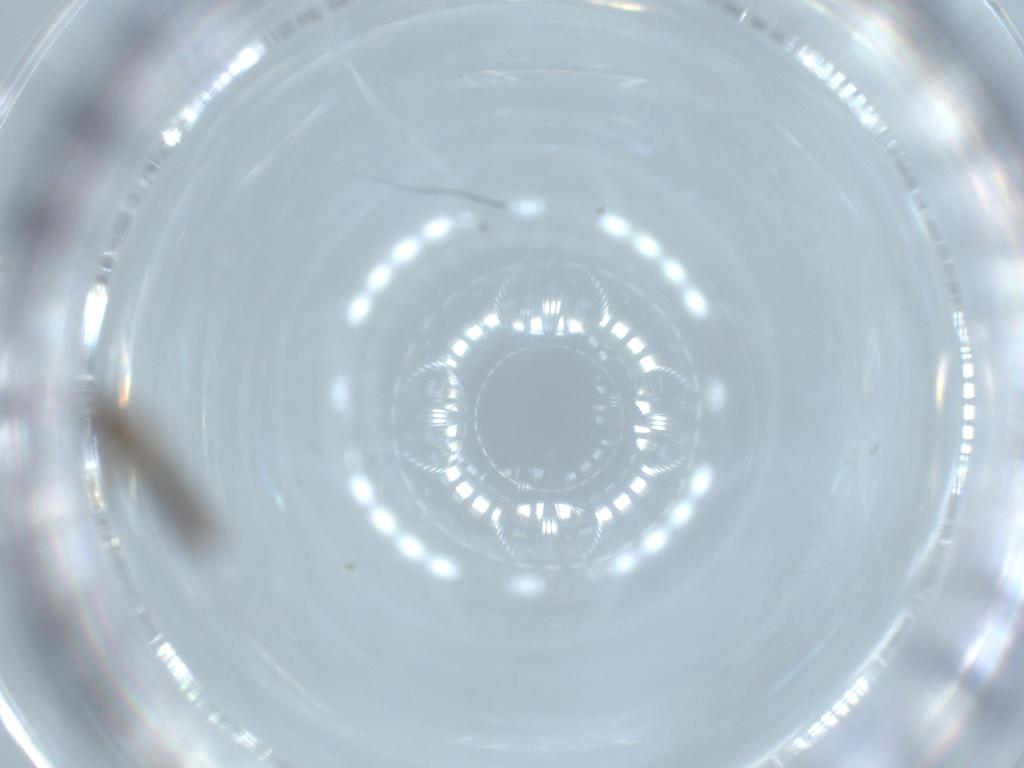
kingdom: Animalia
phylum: Arthropoda
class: Insecta
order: Diptera
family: Cecidomyiidae
